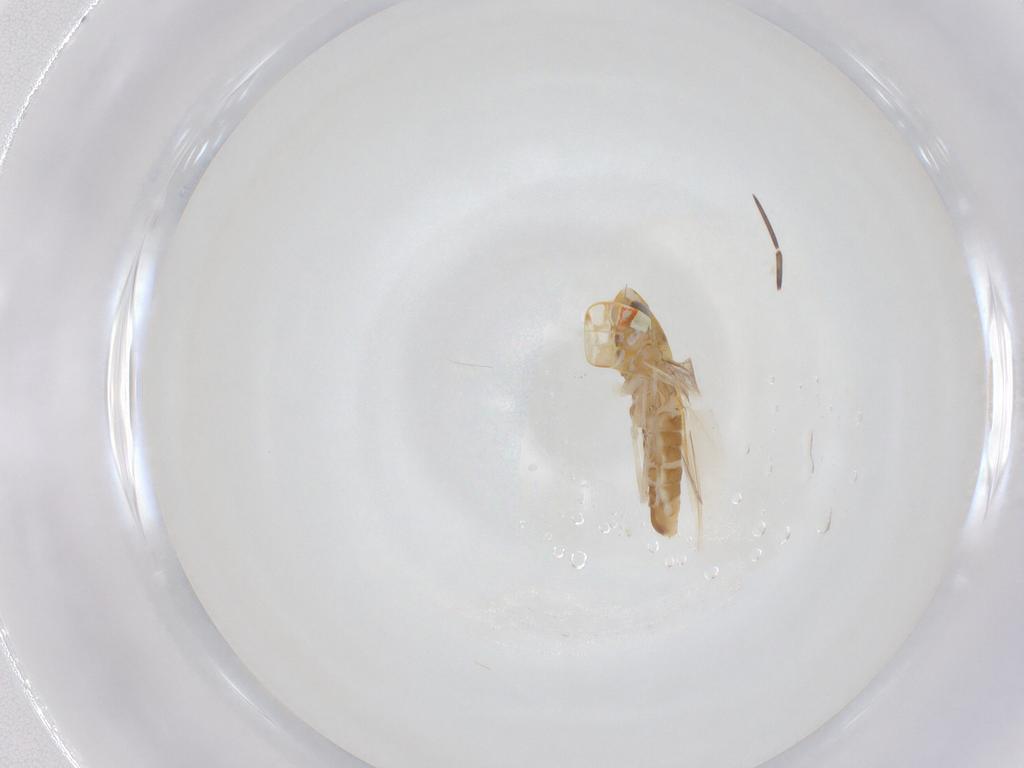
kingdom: Animalia
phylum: Arthropoda
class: Insecta
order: Hemiptera
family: Cicadellidae
